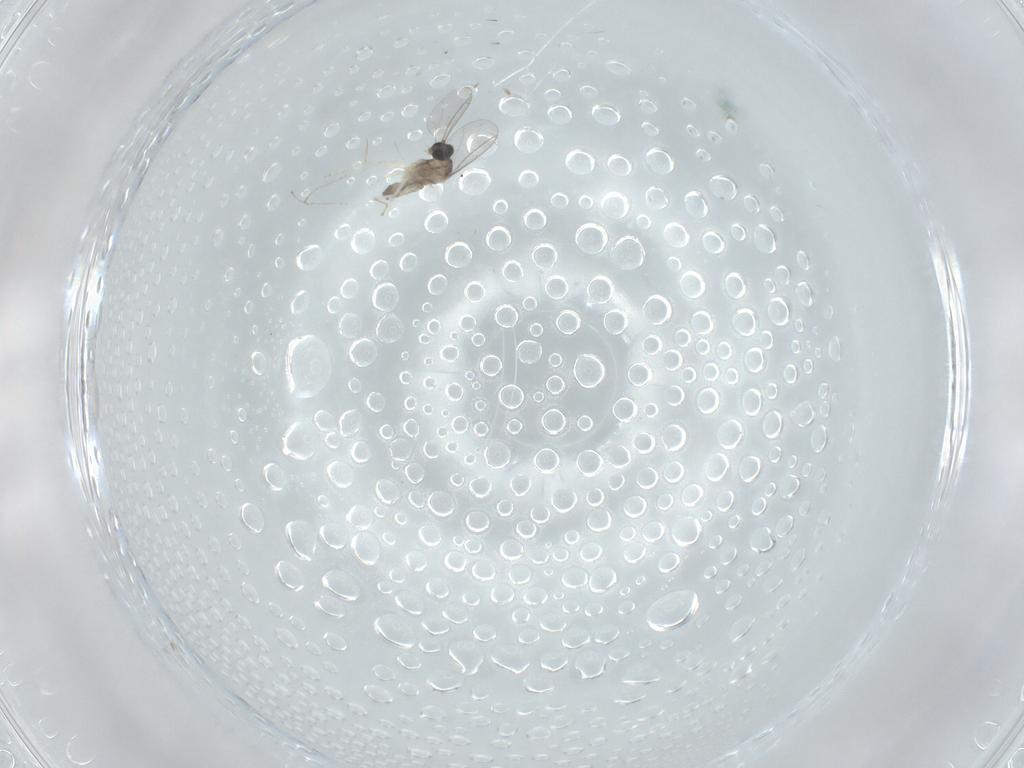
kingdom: Animalia
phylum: Arthropoda
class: Insecta
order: Diptera
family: Cecidomyiidae
